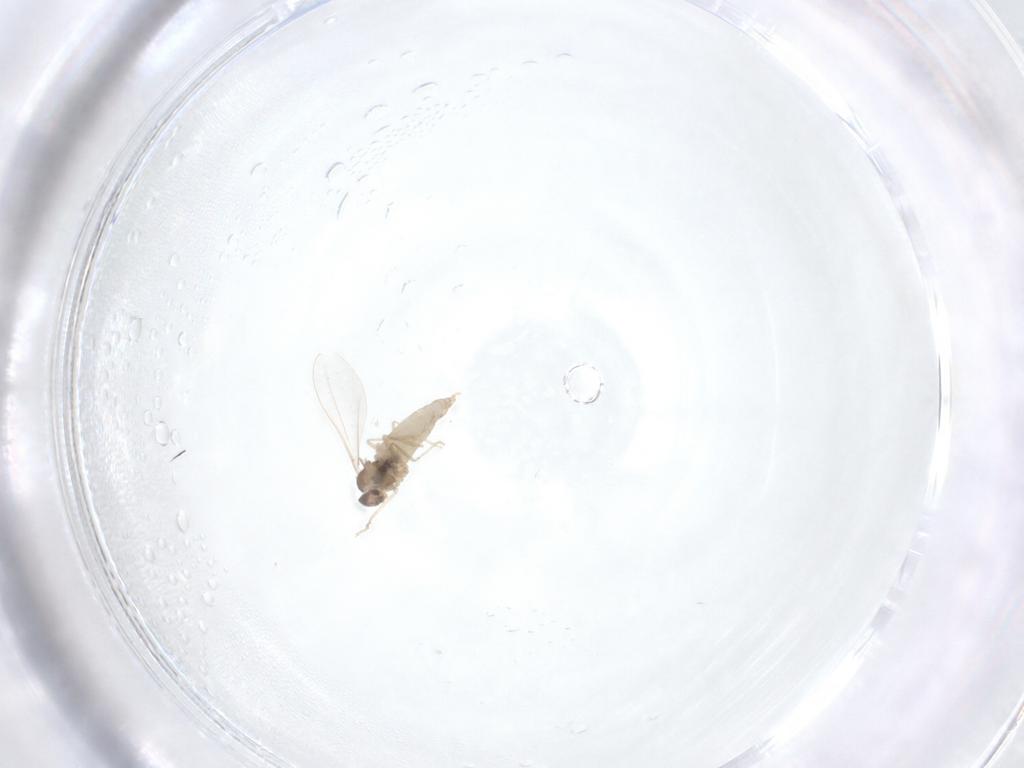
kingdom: Animalia
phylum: Arthropoda
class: Insecta
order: Diptera
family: Cecidomyiidae
